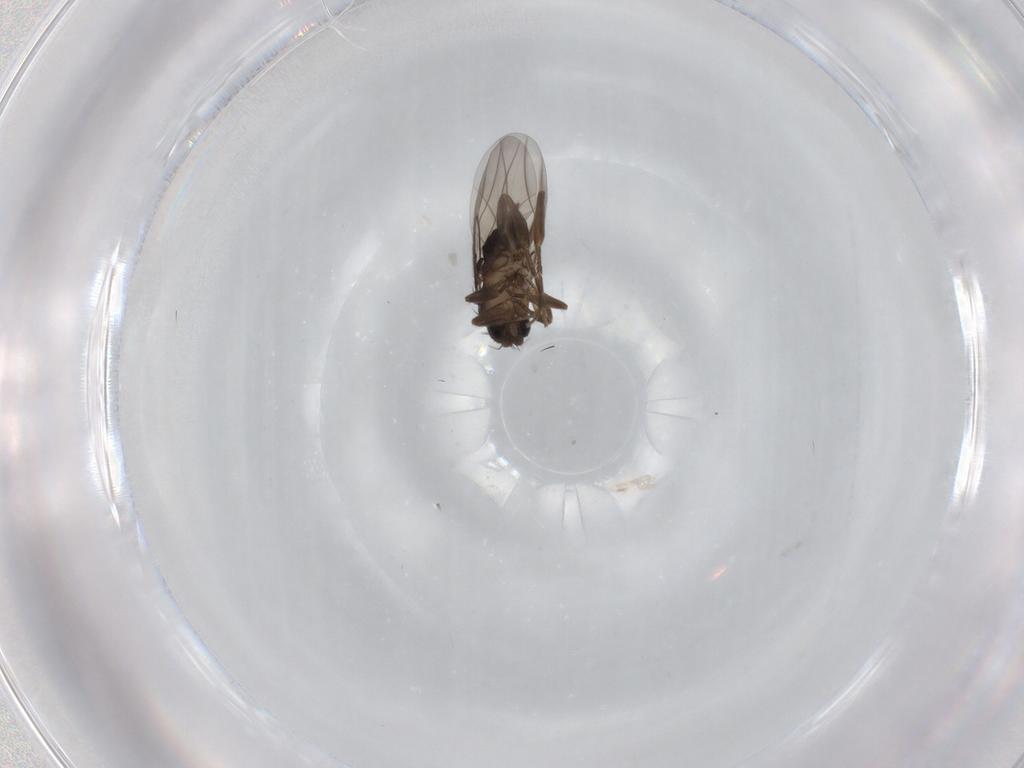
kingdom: Animalia
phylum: Arthropoda
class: Insecta
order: Diptera
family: Phoridae
